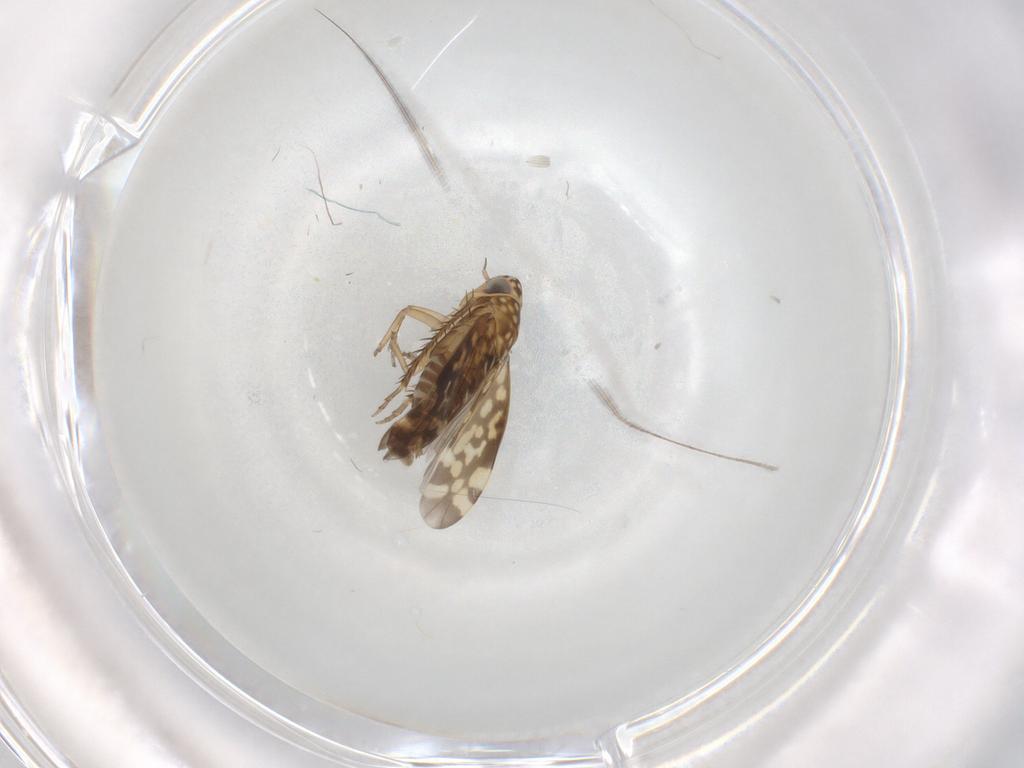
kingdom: Animalia
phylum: Arthropoda
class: Insecta
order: Hemiptera
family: Cicadellidae
